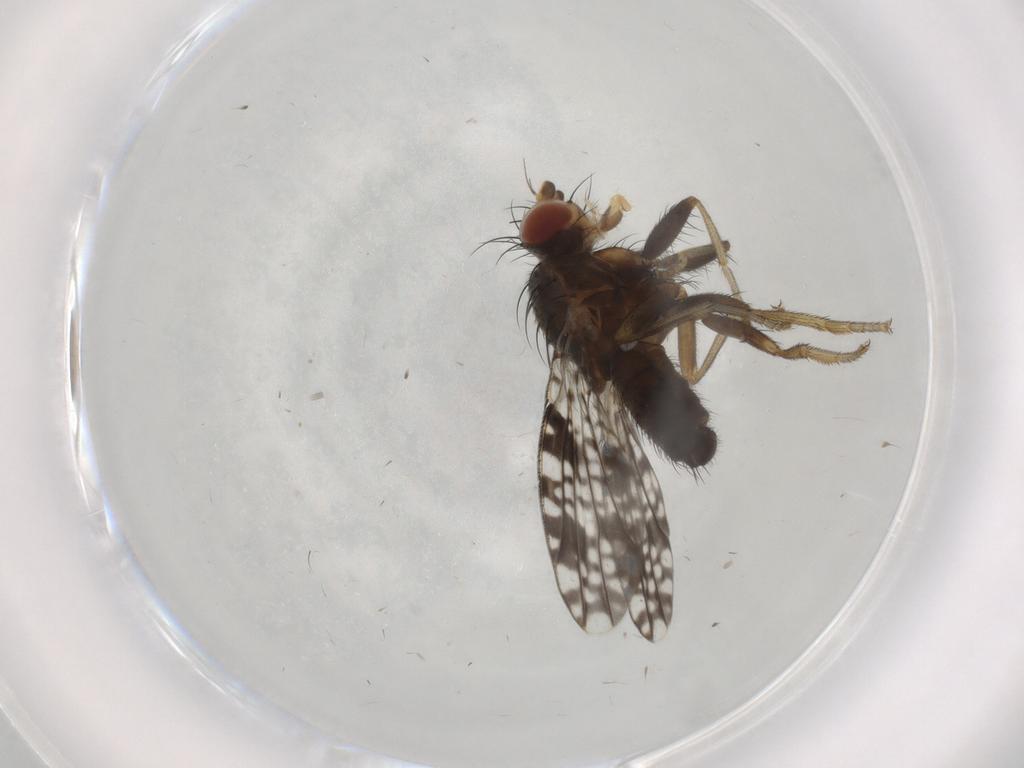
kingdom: Animalia
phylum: Arthropoda
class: Insecta
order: Diptera
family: Tephritidae
